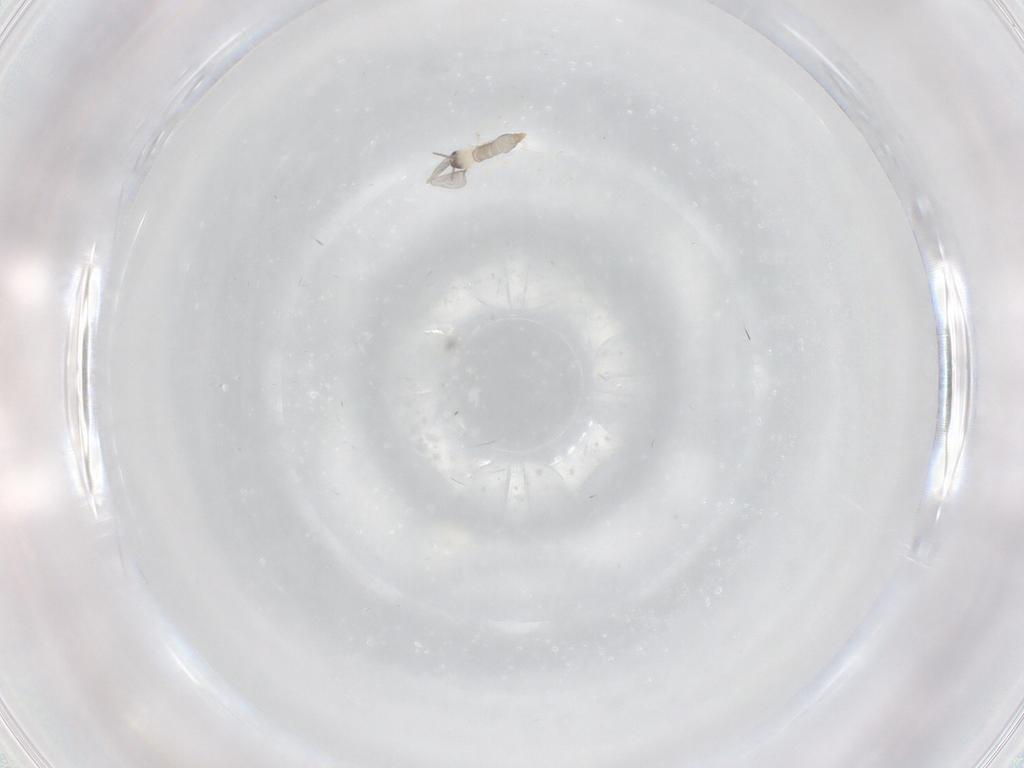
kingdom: Animalia
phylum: Arthropoda
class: Insecta
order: Diptera
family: Cecidomyiidae
